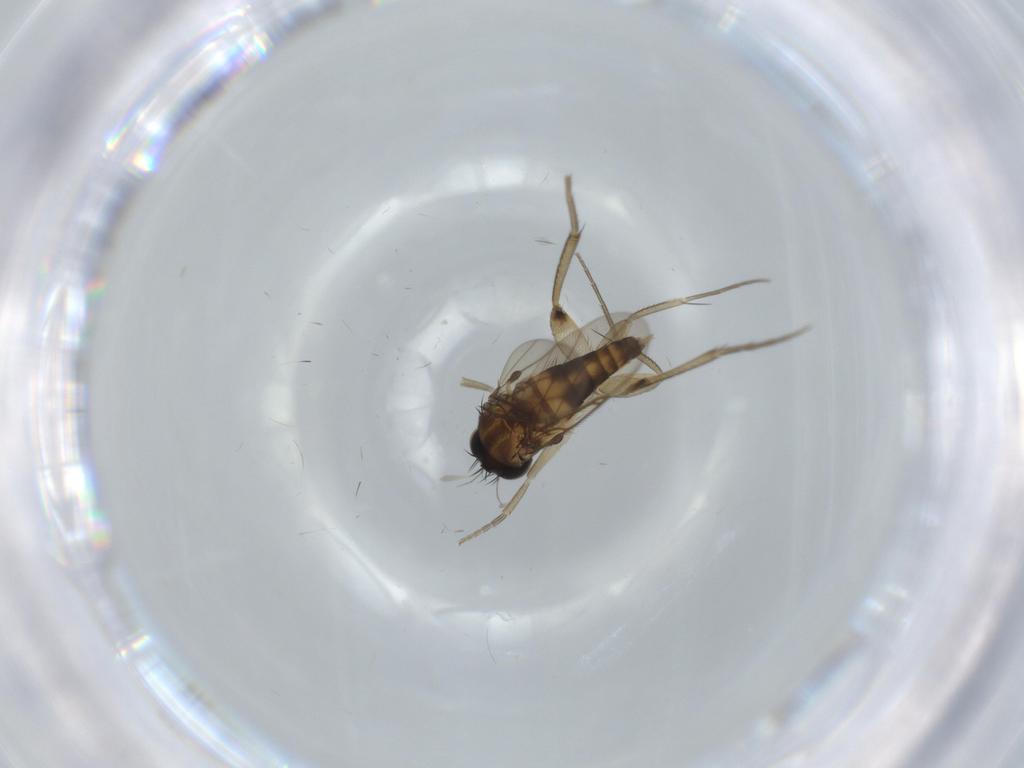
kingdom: Animalia
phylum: Arthropoda
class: Insecta
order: Diptera
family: Sciaridae
